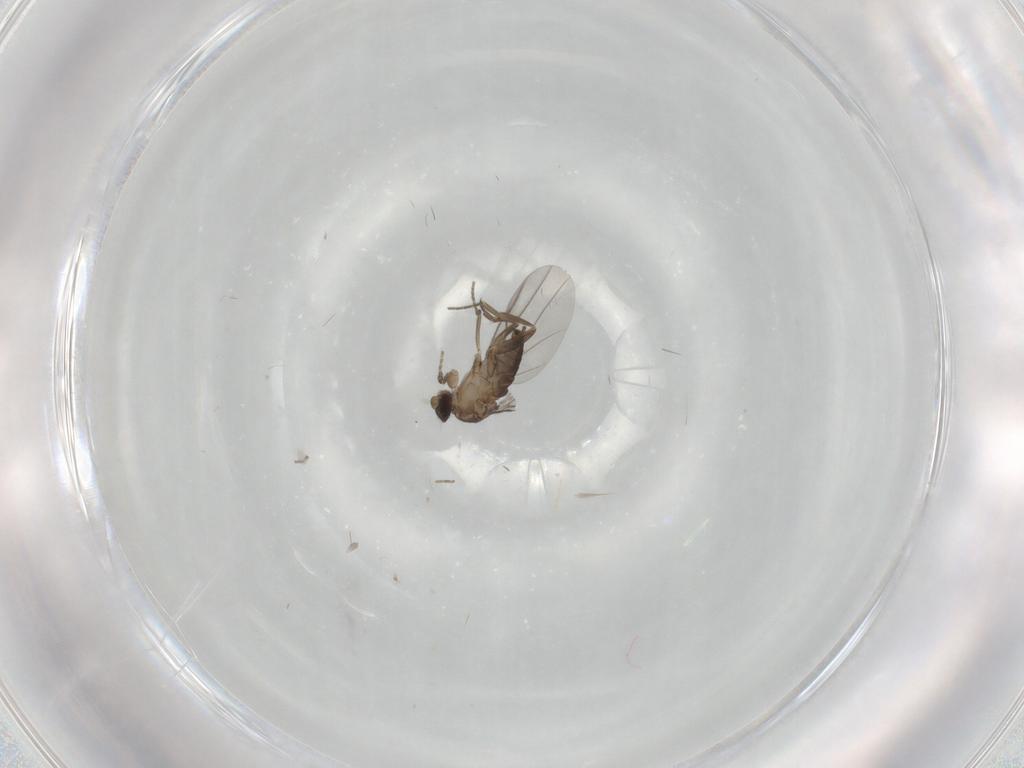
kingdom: Animalia
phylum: Arthropoda
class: Insecta
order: Diptera
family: Phoridae
